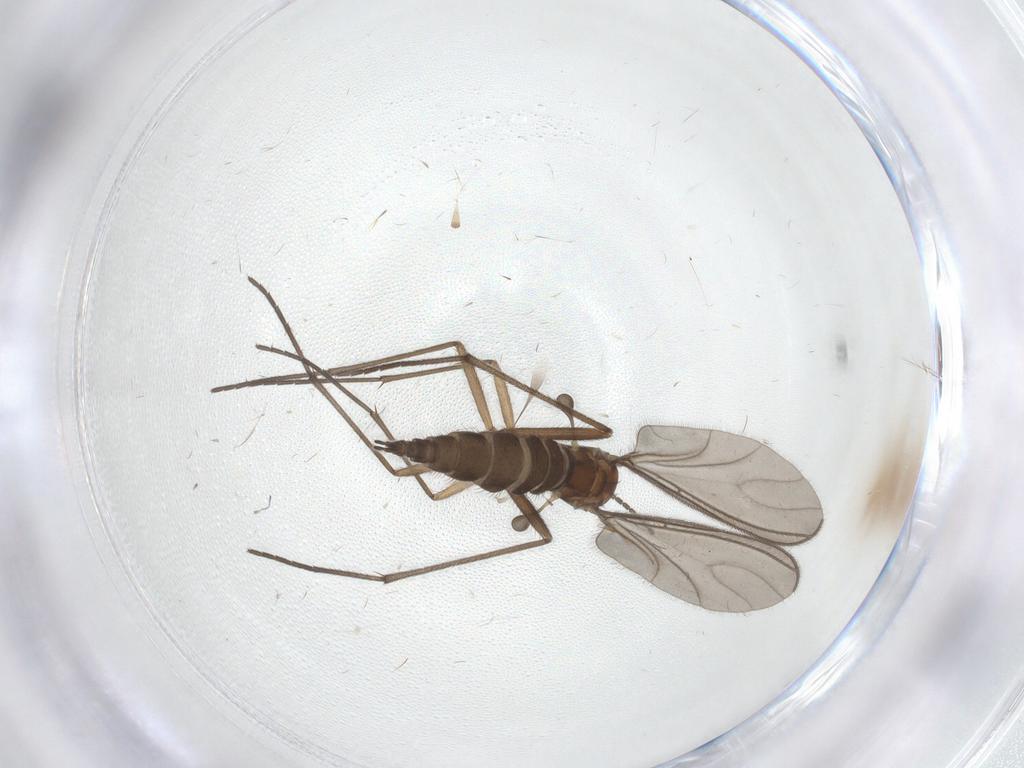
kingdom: Animalia
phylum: Arthropoda
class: Insecta
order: Diptera
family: Sciaridae
